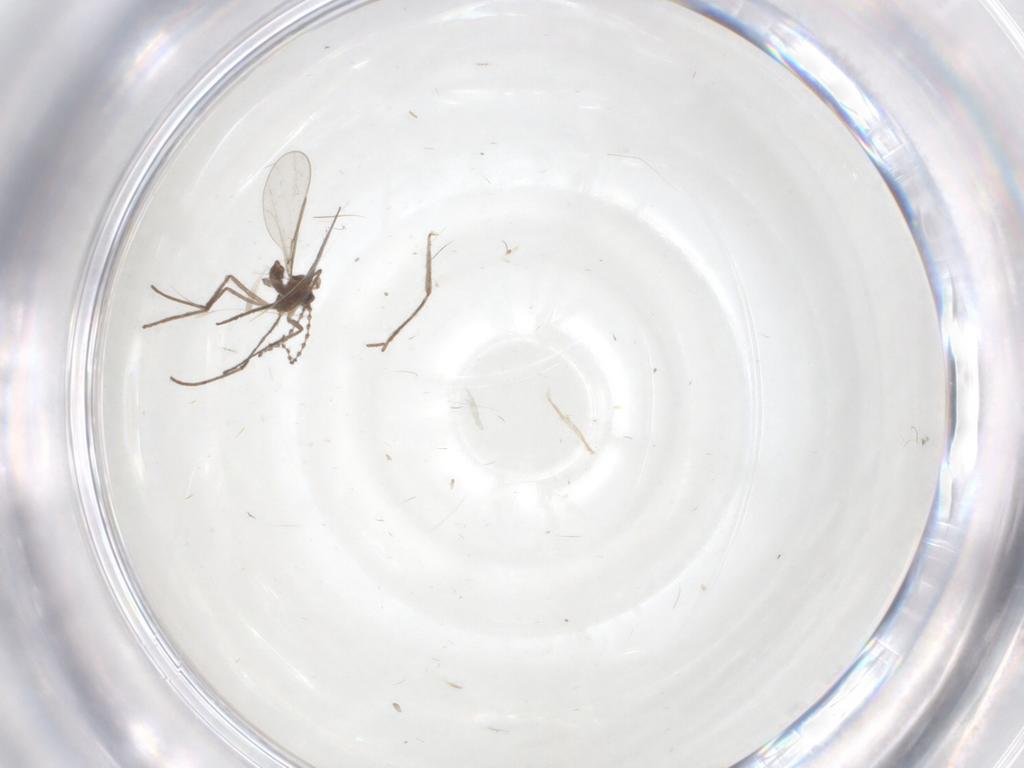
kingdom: Animalia
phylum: Arthropoda
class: Insecta
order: Diptera
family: Cecidomyiidae
